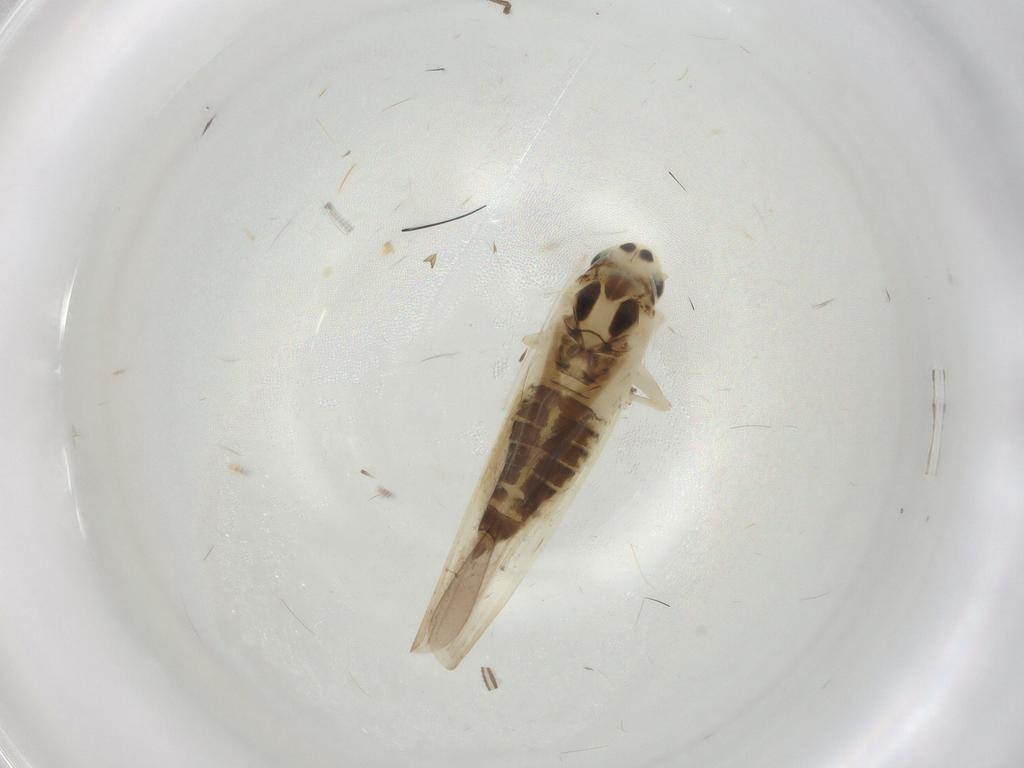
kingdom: Animalia
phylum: Arthropoda
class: Insecta
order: Hemiptera
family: Cicadellidae
